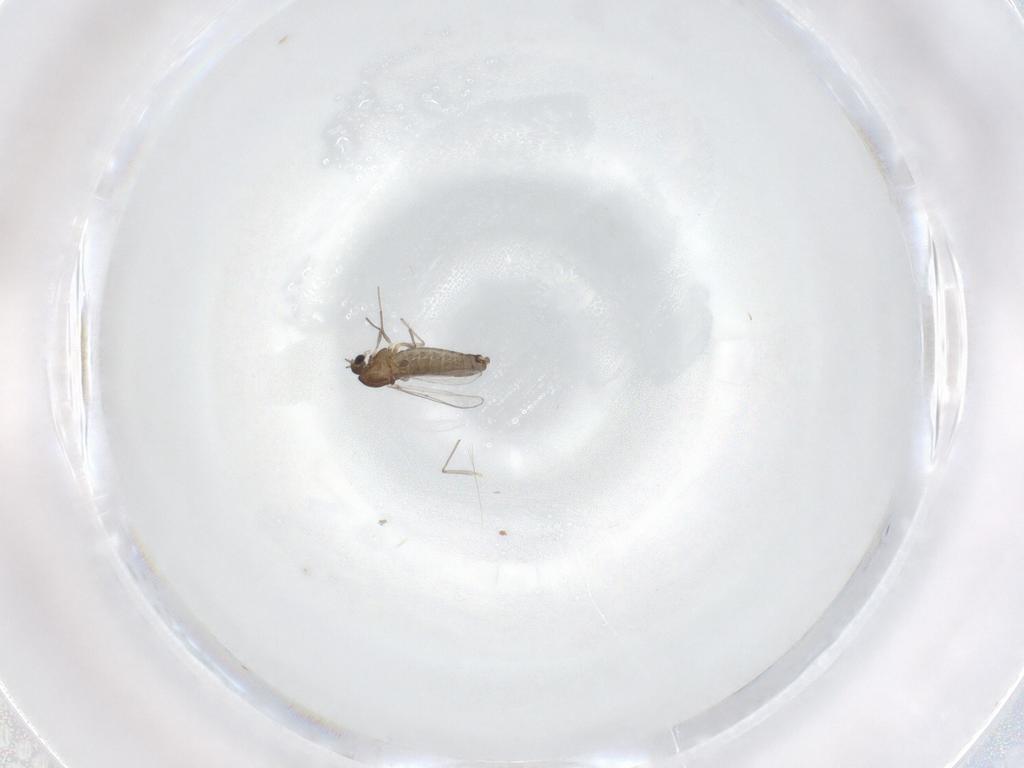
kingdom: Animalia
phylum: Arthropoda
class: Insecta
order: Diptera
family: Chironomidae
